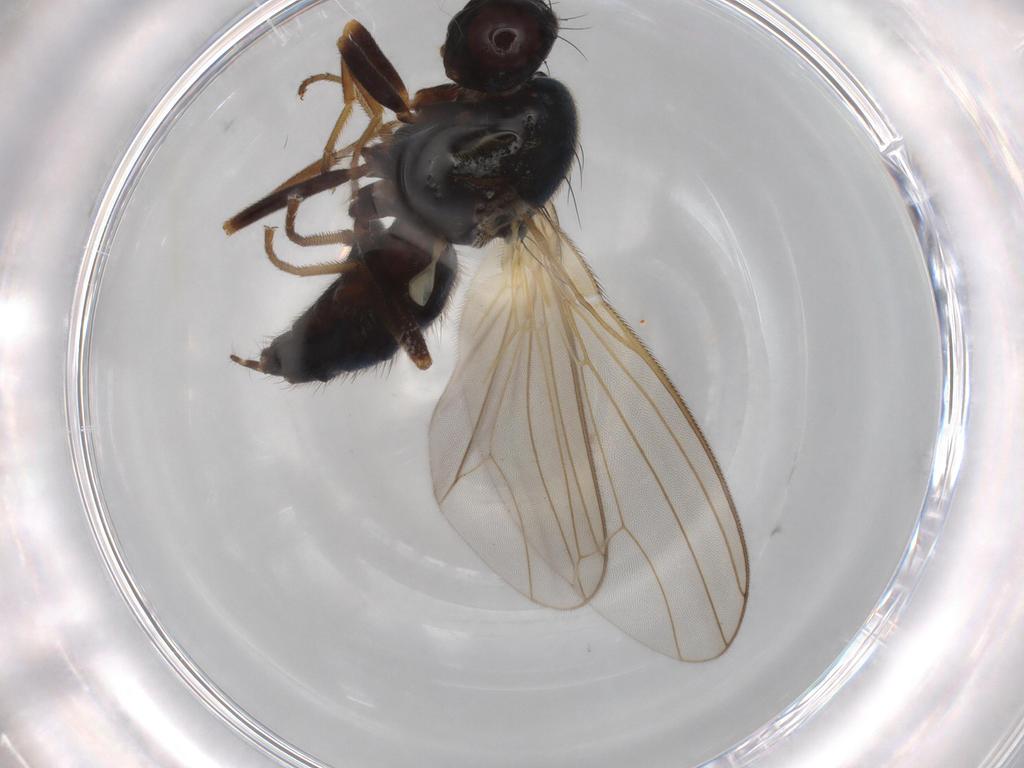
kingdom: Animalia
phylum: Arthropoda
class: Insecta
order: Diptera
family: Phoridae
